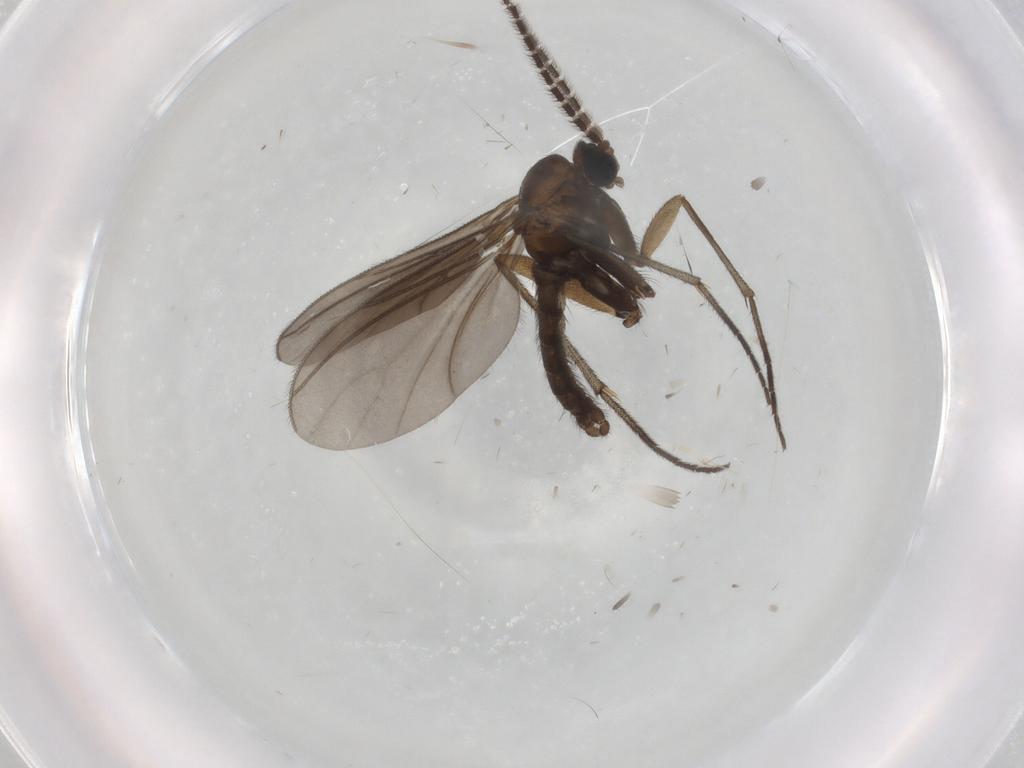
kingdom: Animalia
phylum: Arthropoda
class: Insecta
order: Diptera
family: Sciaridae
